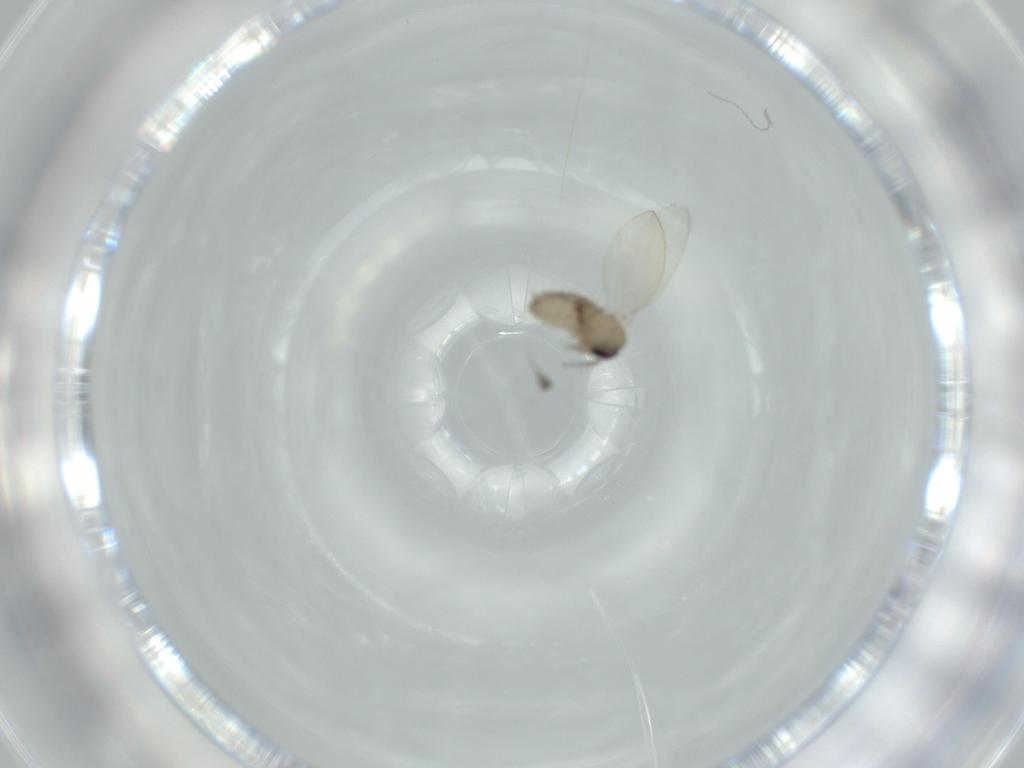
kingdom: Animalia
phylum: Arthropoda
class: Insecta
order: Diptera
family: Psychodidae
